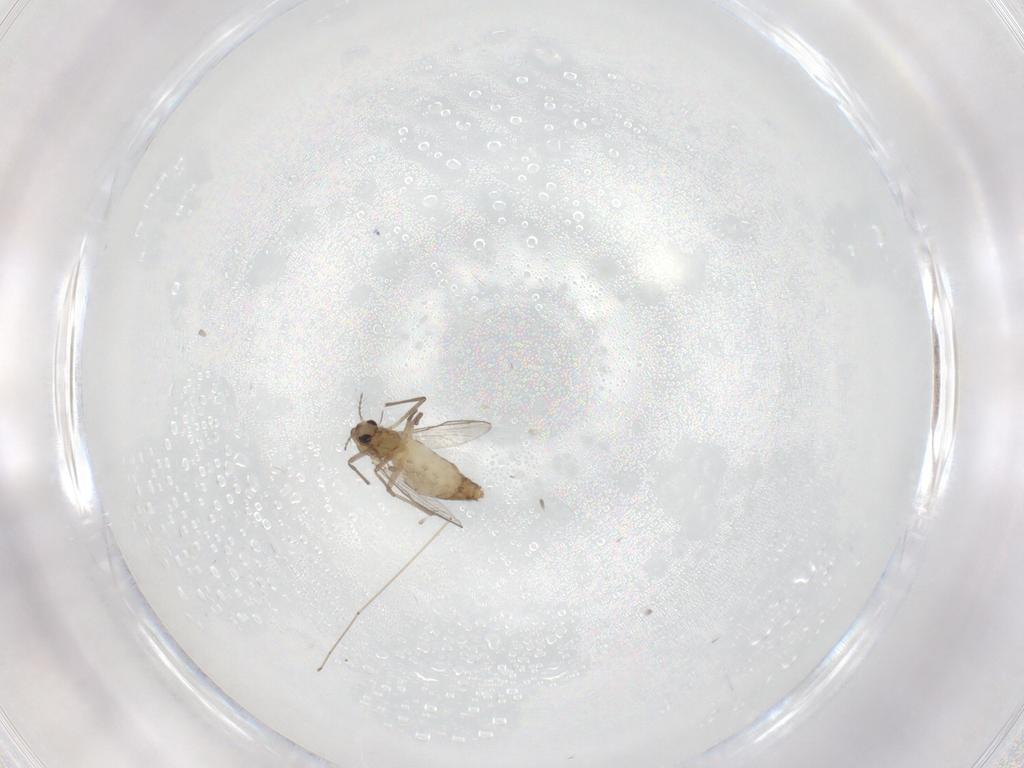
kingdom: Animalia
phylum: Arthropoda
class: Insecta
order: Diptera
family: Chironomidae
